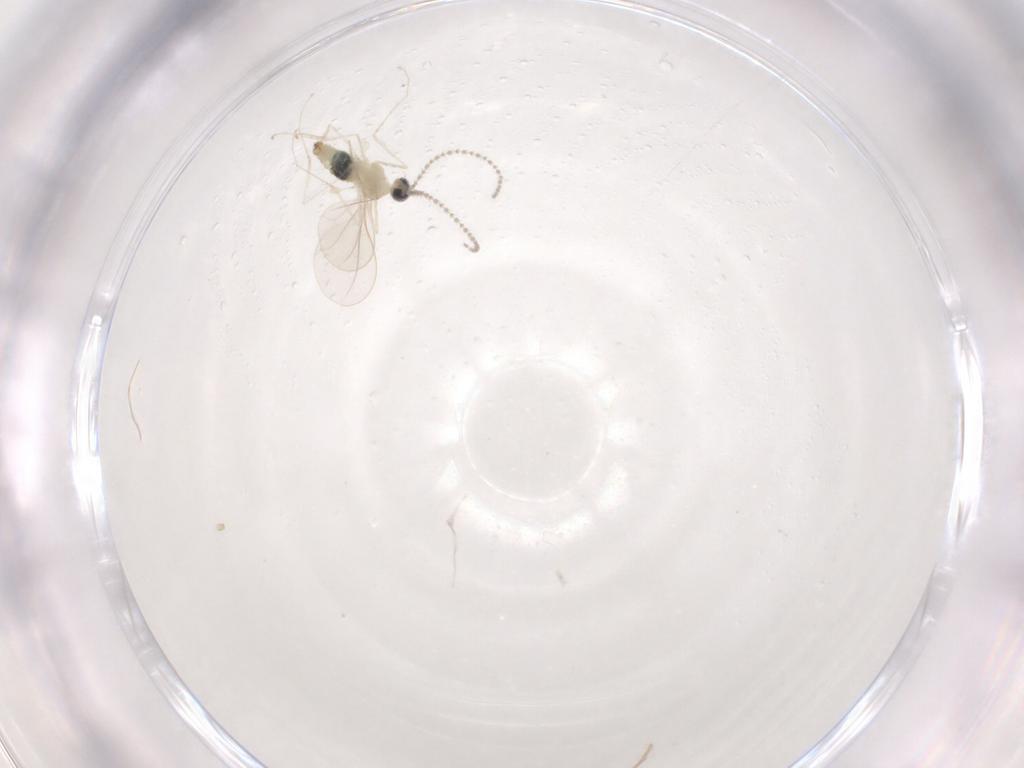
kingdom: Animalia
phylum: Arthropoda
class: Insecta
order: Diptera
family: Cecidomyiidae
